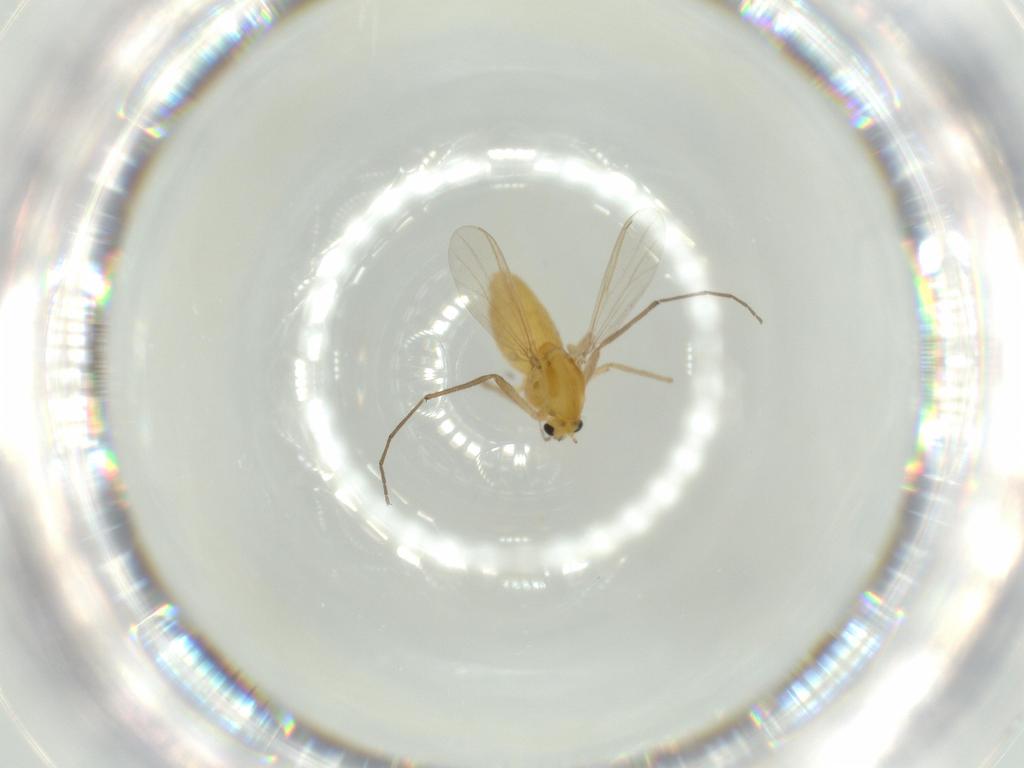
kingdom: Animalia
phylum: Arthropoda
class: Insecta
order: Diptera
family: Chironomidae
